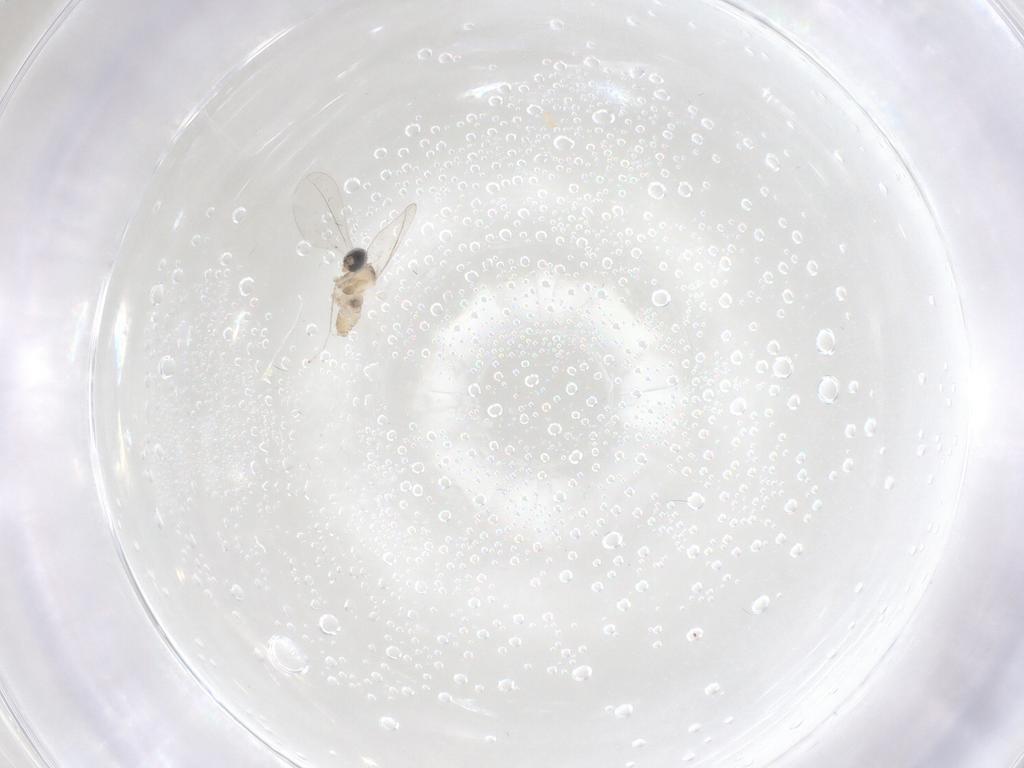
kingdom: Animalia
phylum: Arthropoda
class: Insecta
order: Diptera
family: Cecidomyiidae
